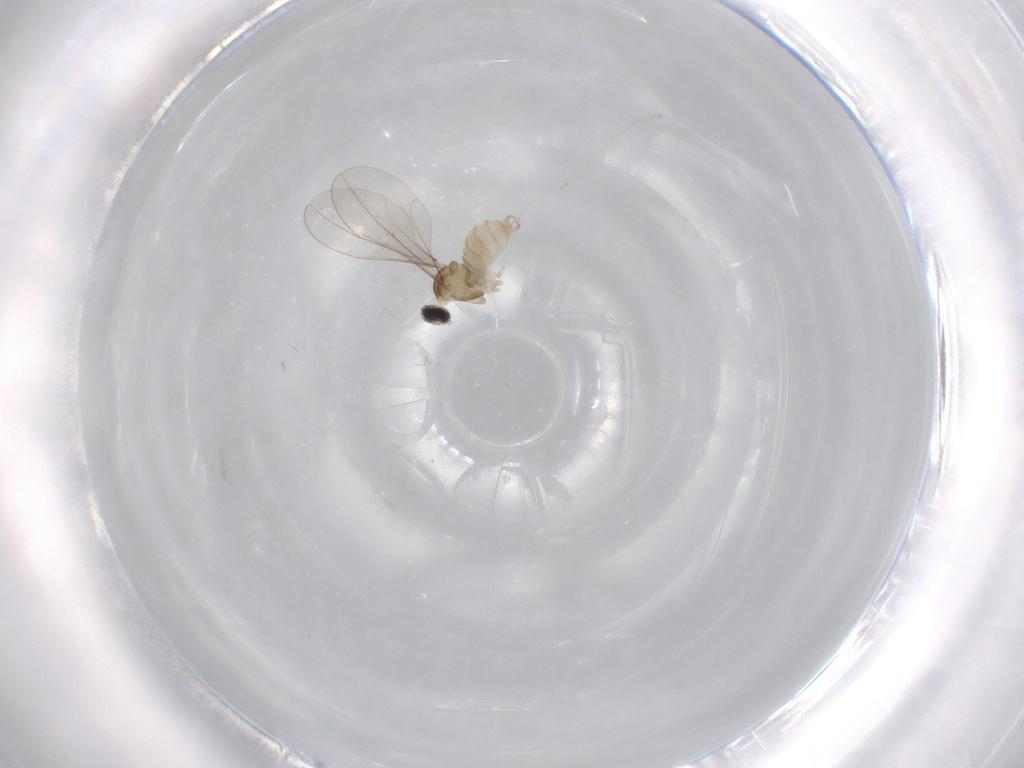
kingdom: Animalia
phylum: Arthropoda
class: Insecta
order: Diptera
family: Cecidomyiidae
